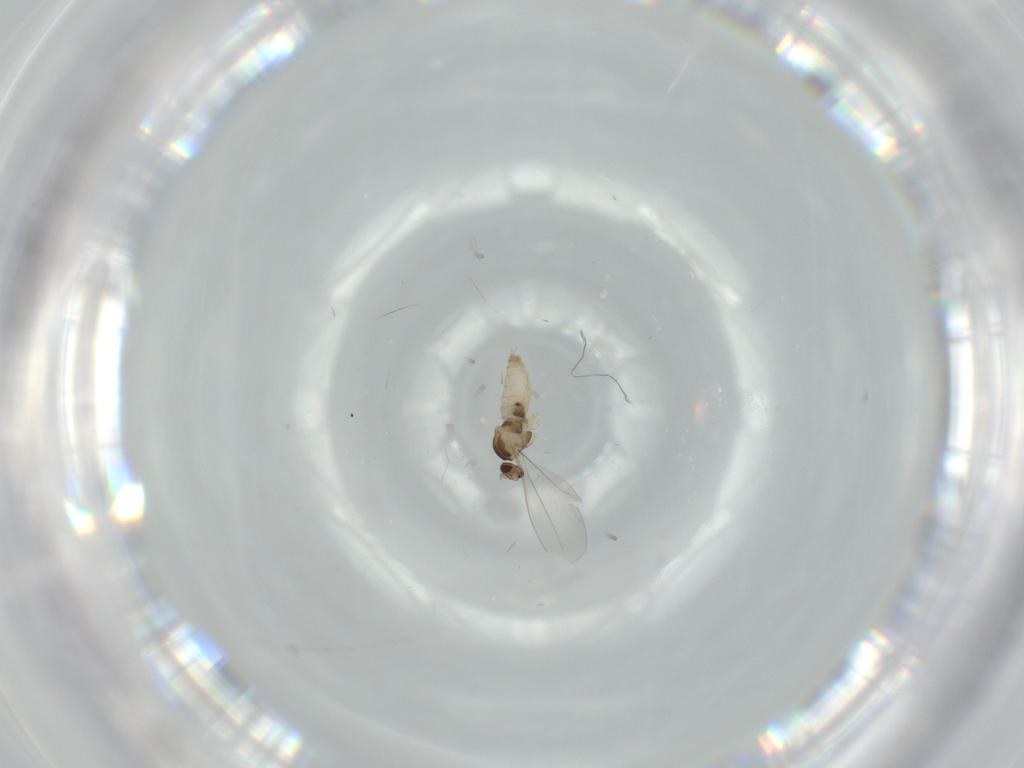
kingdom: Animalia
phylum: Arthropoda
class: Insecta
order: Diptera
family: Cecidomyiidae
